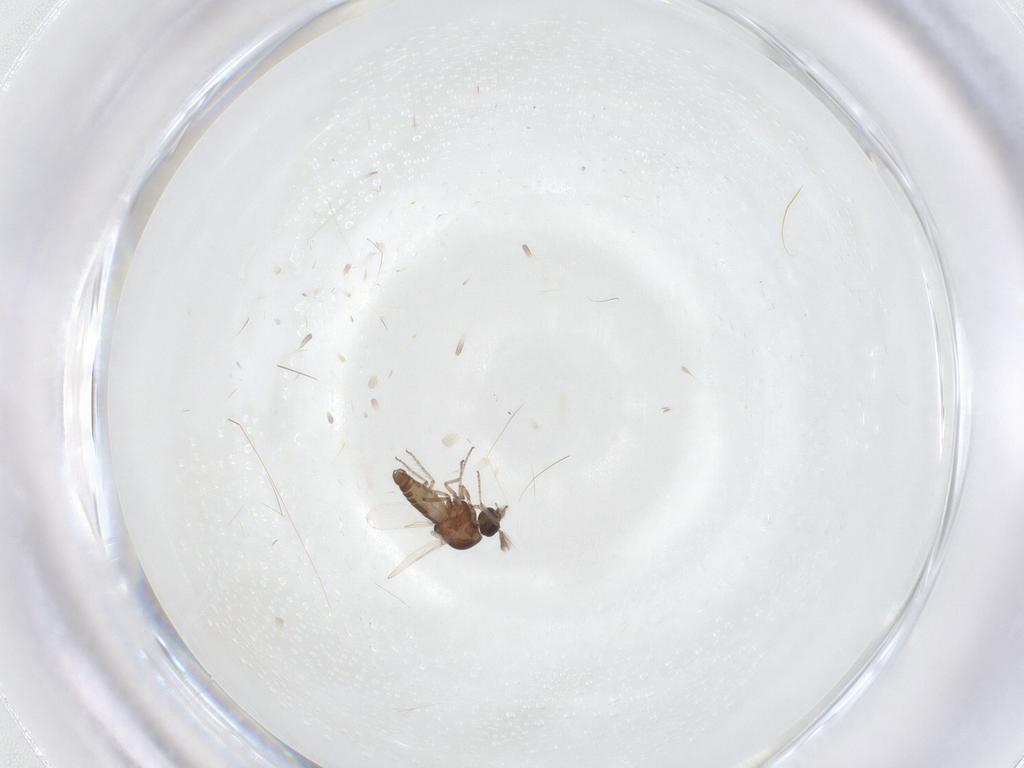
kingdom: Animalia
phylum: Arthropoda
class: Insecta
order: Diptera
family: Ceratopogonidae
